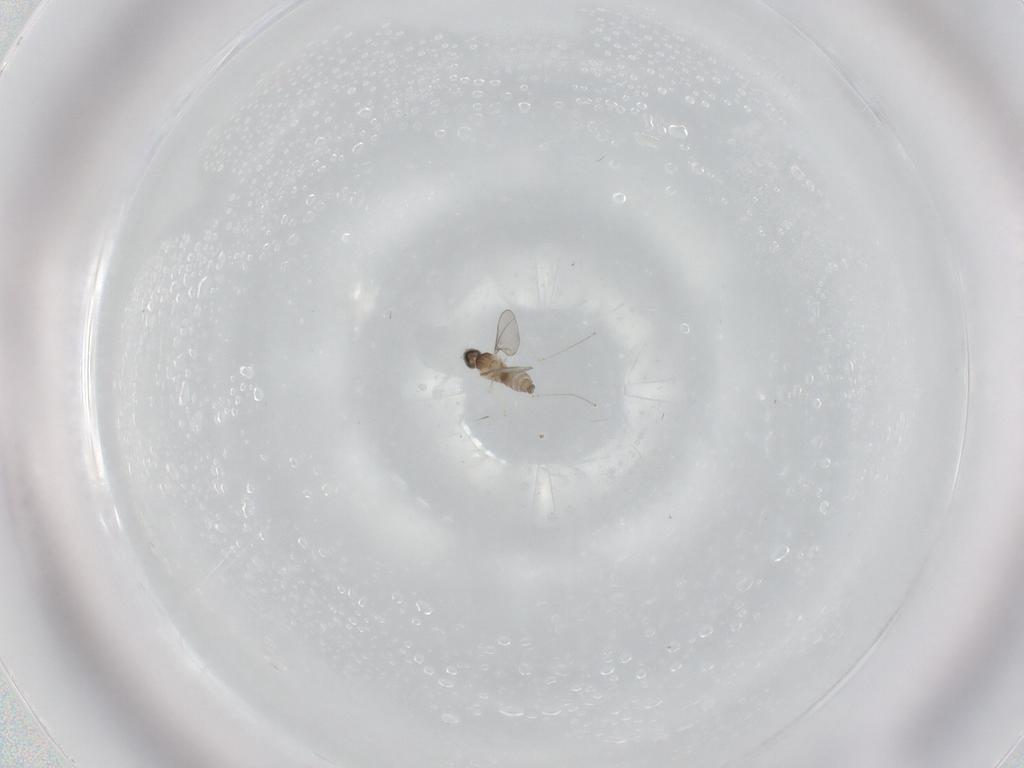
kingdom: Animalia
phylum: Arthropoda
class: Insecta
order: Diptera
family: Cecidomyiidae
